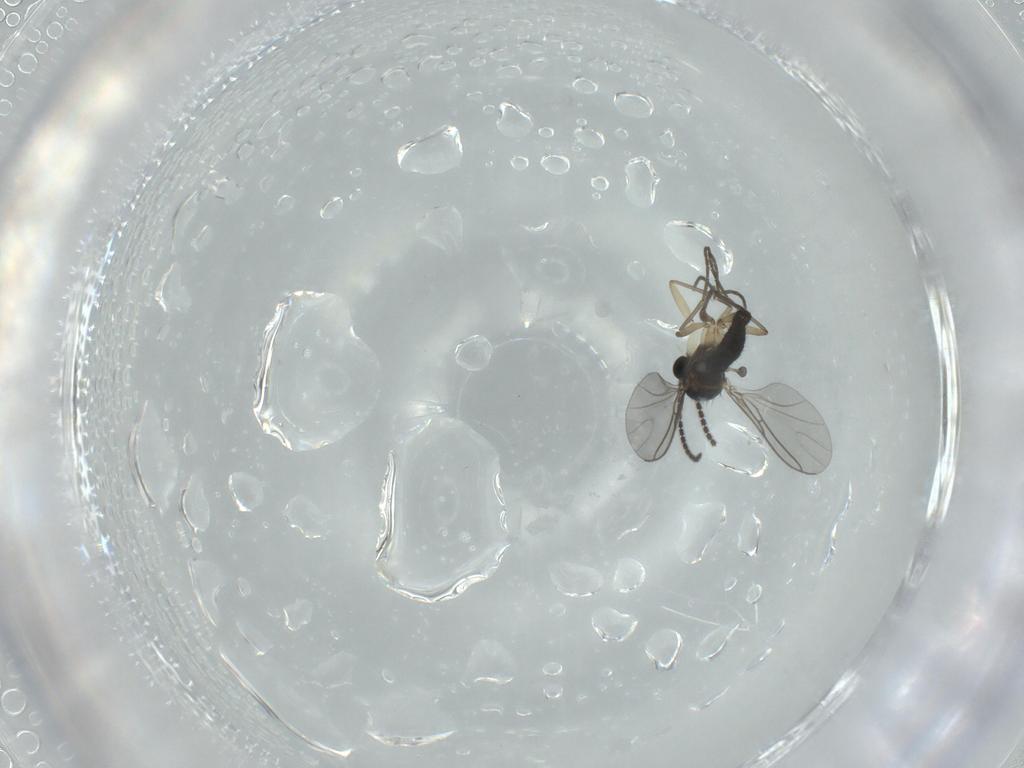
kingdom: Animalia
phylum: Arthropoda
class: Insecta
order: Diptera
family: Sciaridae
